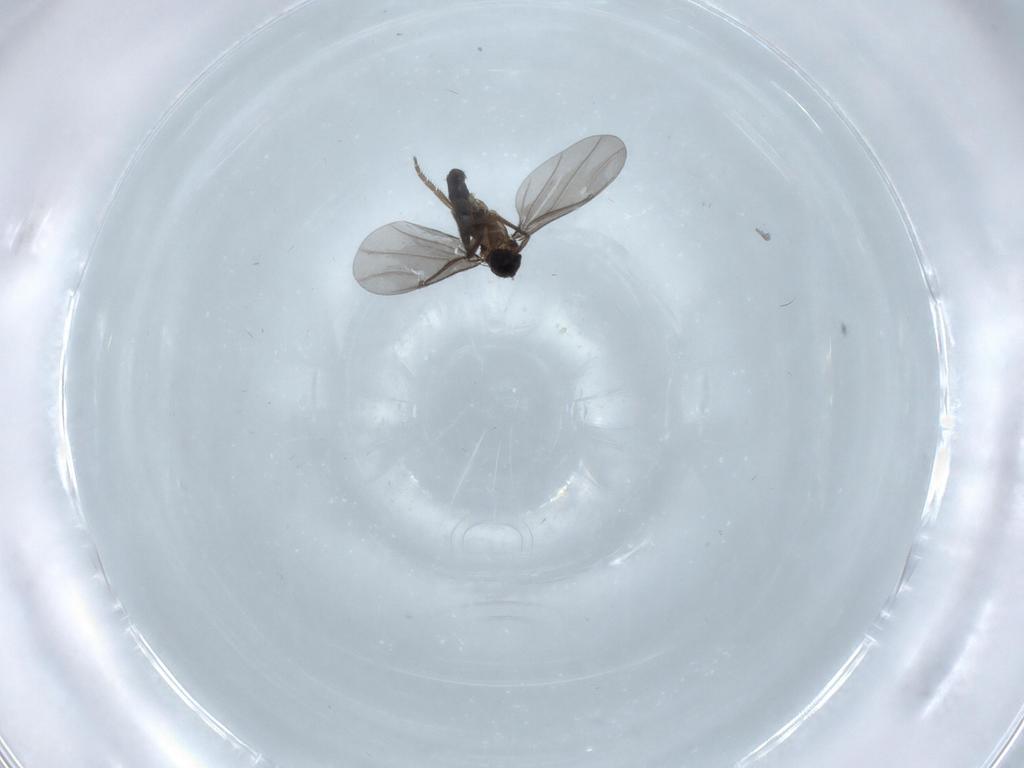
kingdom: Animalia
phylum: Arthropoda
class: Insecta
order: Diptera
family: Phoridae
